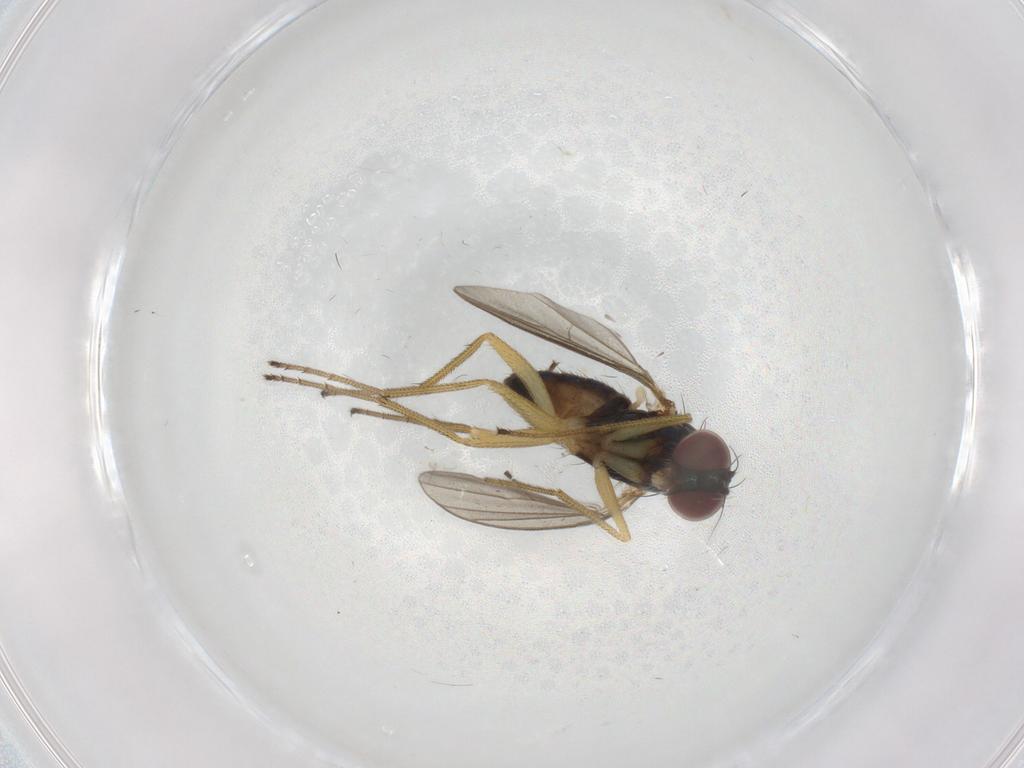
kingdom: Animalia
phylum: Arthropoda
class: Insecta
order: Diptera
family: Dolichopodidae
